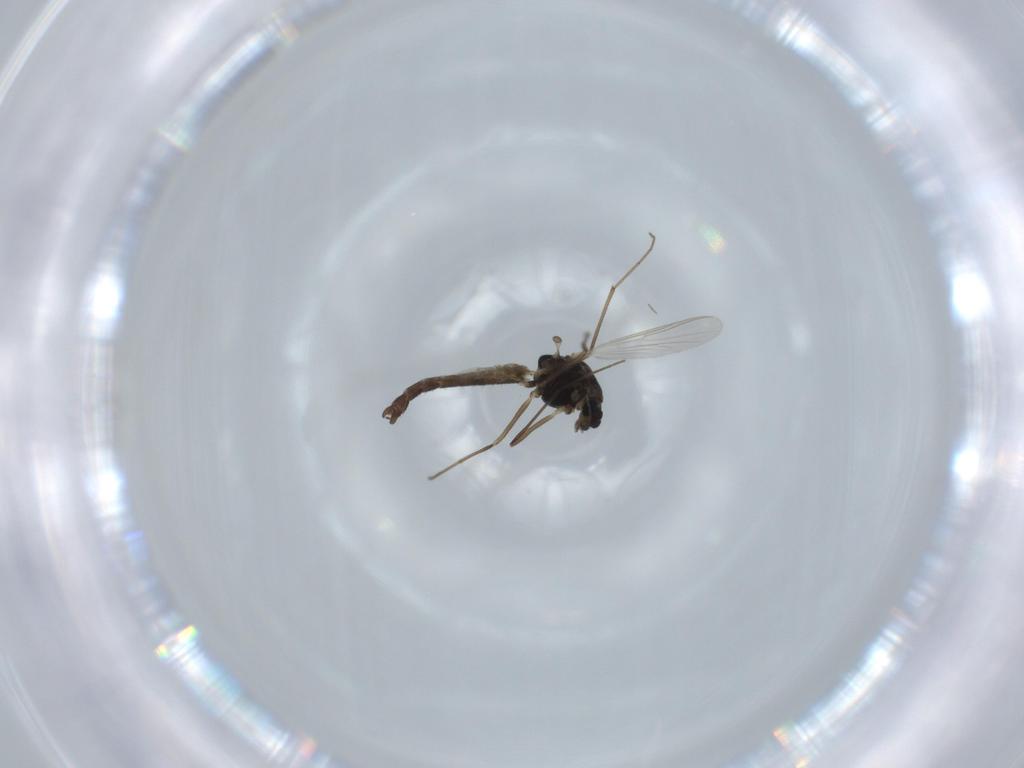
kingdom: Animalia
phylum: Arthropoda
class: Insecta
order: Diptera
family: Chironomidae
